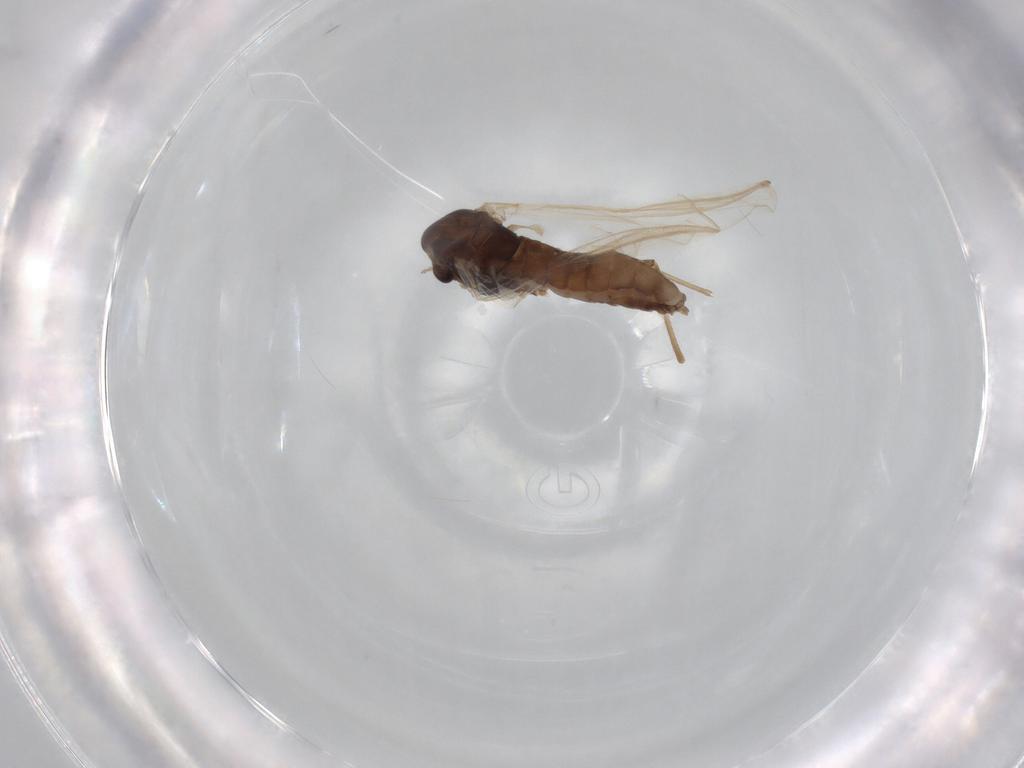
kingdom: Animalia
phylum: Arthropoda
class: Insecta
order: Diptera
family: Chironomidae
